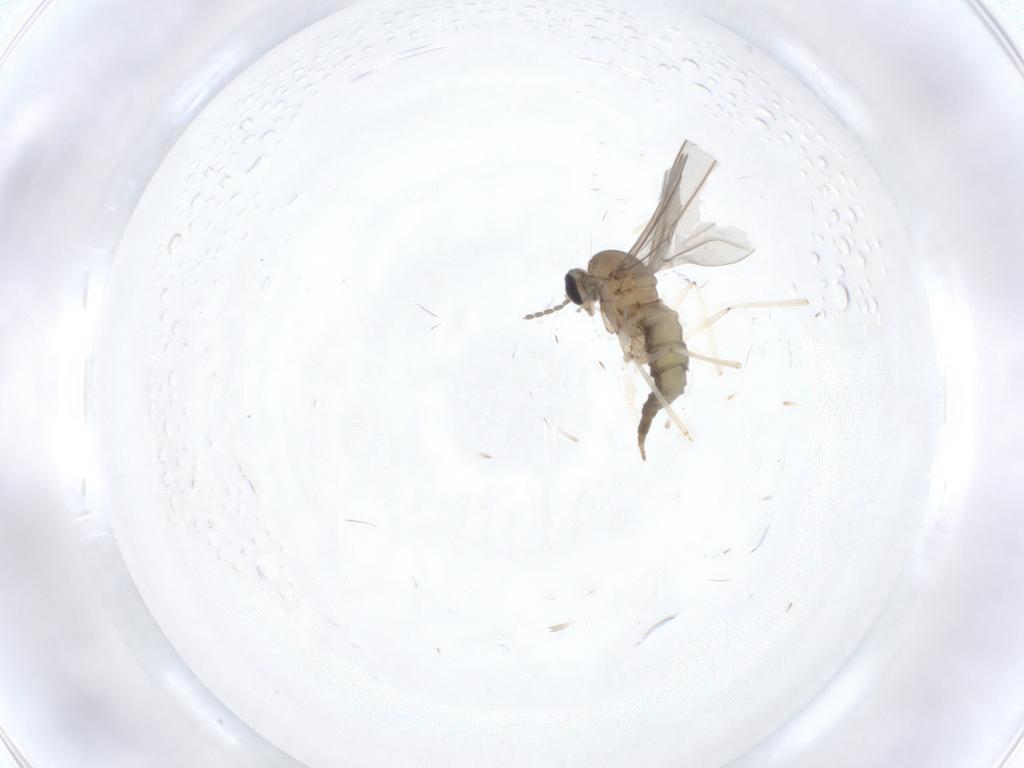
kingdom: Animalia
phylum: Arthropoda
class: Insecta
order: Diptera
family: Cecidomyiidae
